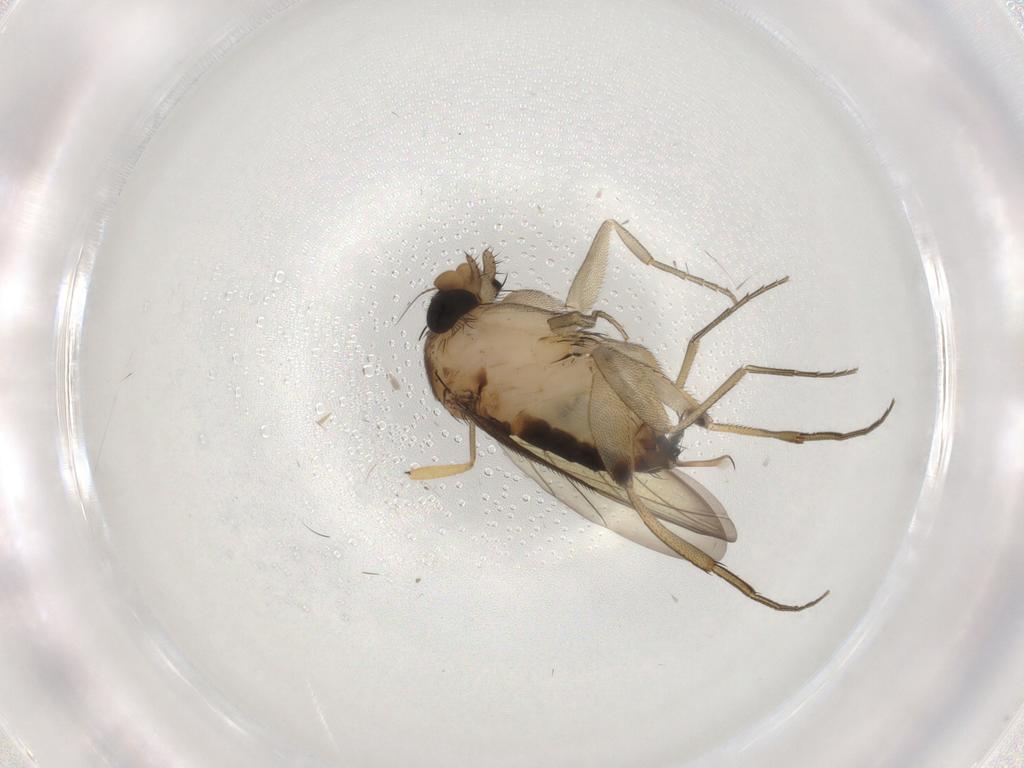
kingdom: Animalia
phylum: Arthropoda
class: Insecta
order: Diptera
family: Phoridae
